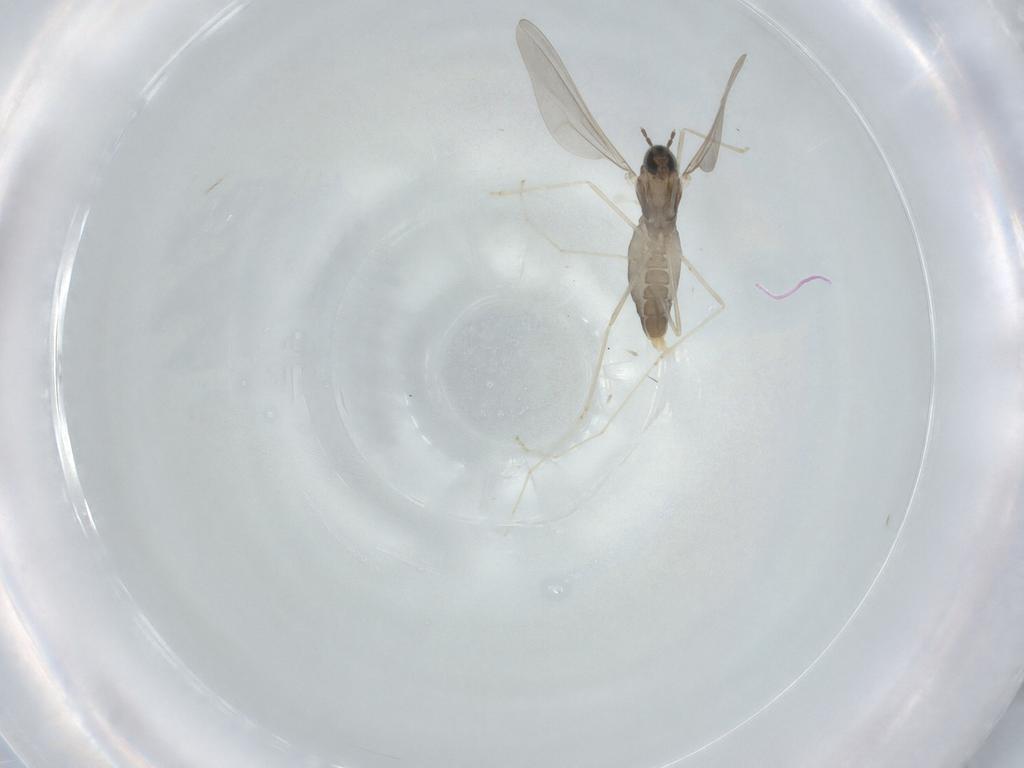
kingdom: Animalia
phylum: Arthropoda
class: Insecta
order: Diptera
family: Cecidomyiidae
